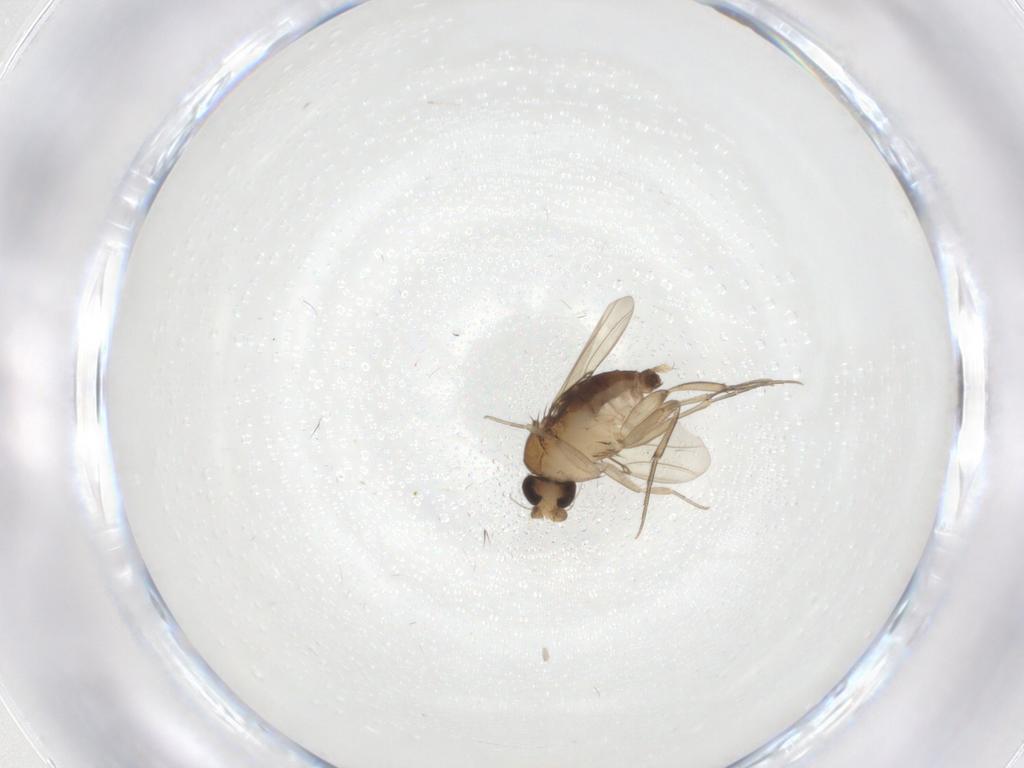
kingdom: Animalia
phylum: Arthropoda
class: Insecta
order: Diptera
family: Phoridae
